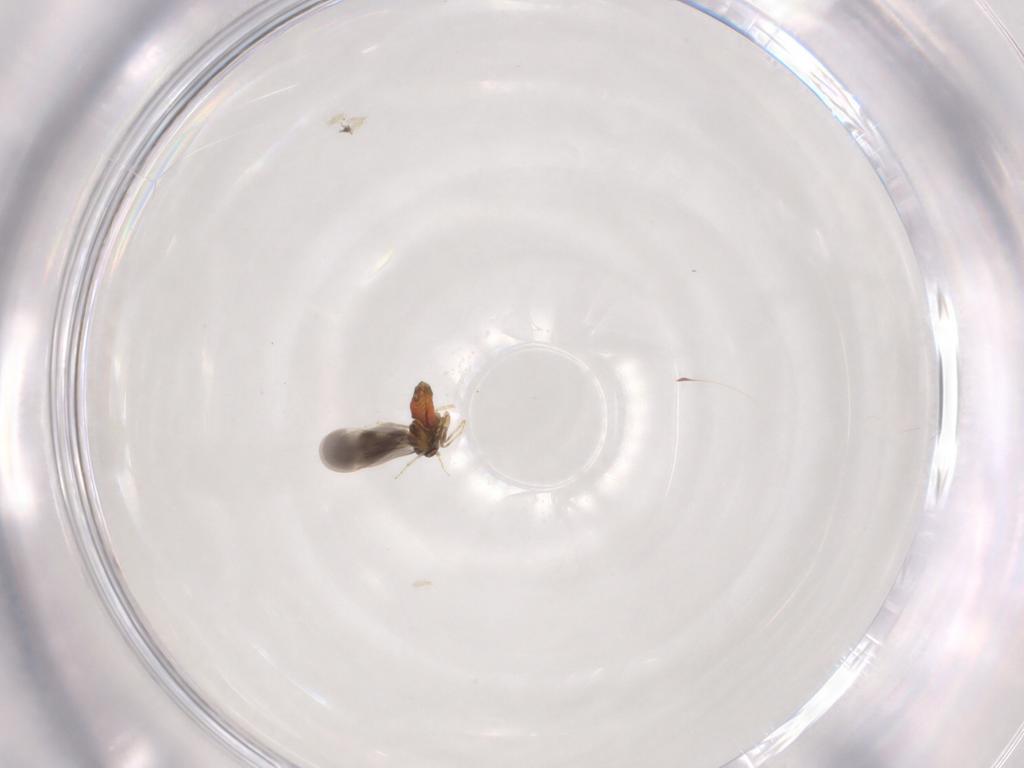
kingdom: Animalia
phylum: Arthropoda
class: Insecta
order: Hemiptera
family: Aleyrodidae
